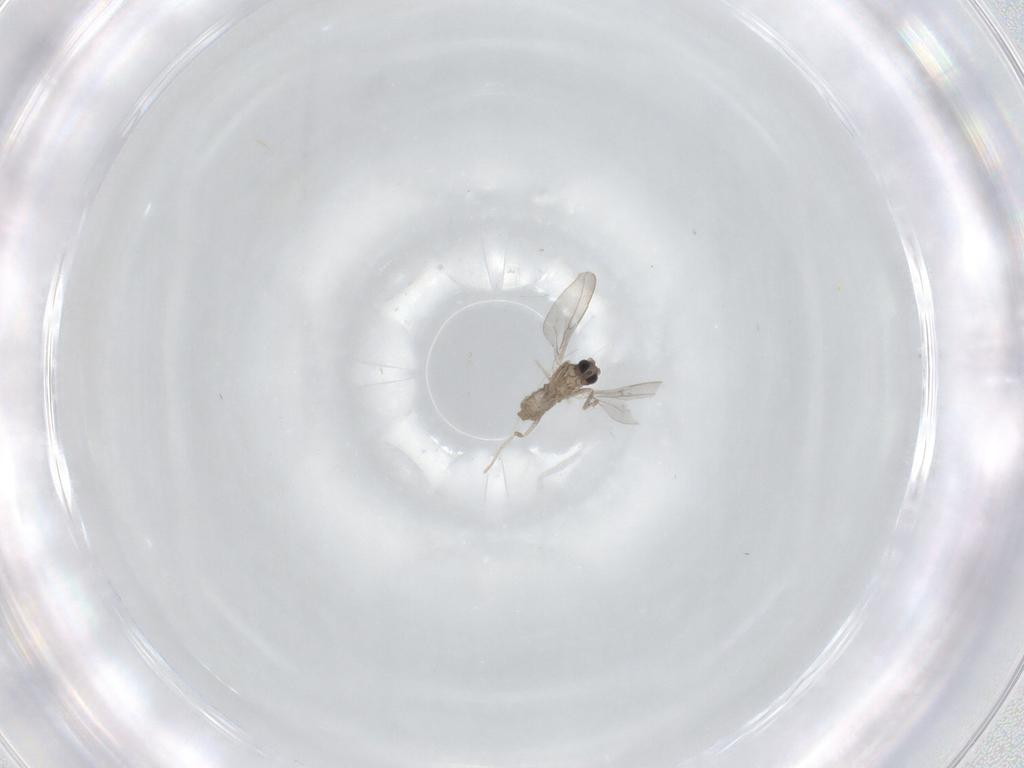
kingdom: Animalia
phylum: Arthropoda
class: Insecta
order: Diptera
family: Cecidomyiidae
